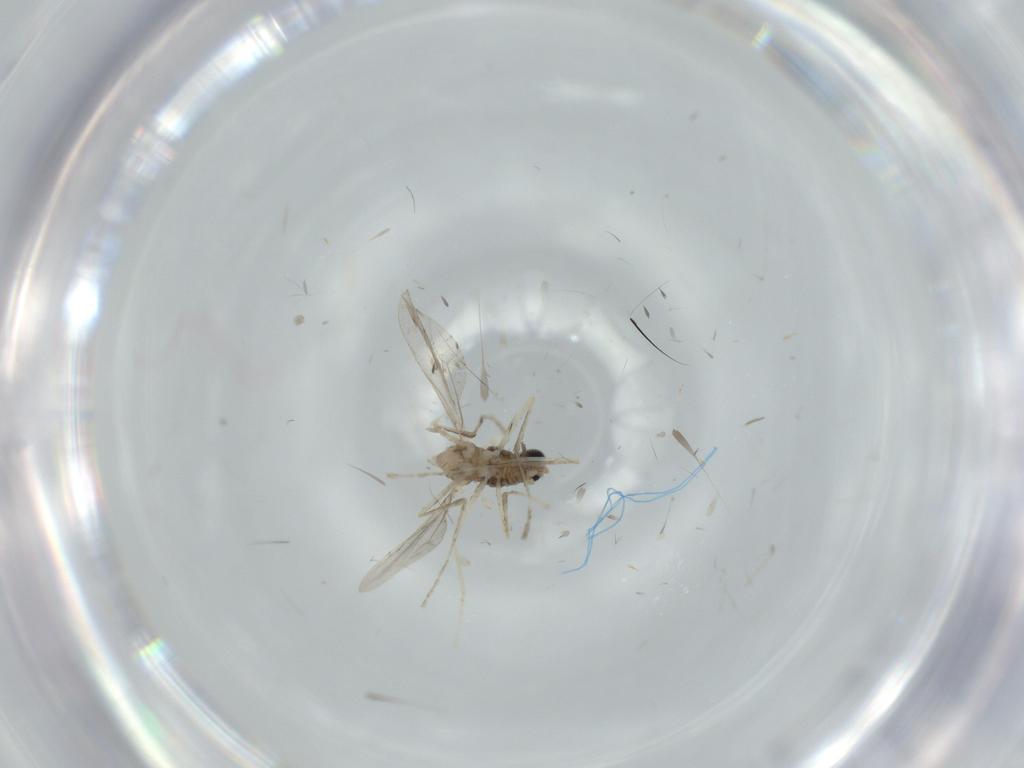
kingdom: Animalia
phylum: Arthropoda
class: Insecta
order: Diptera
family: Cecidomyiidae
